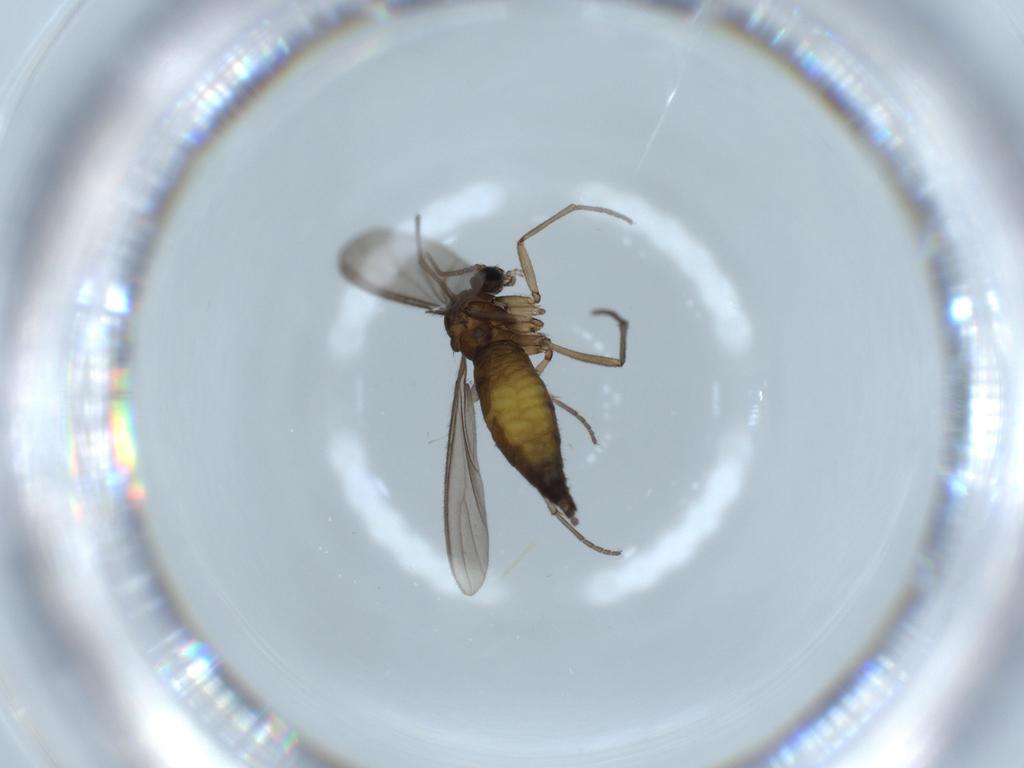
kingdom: Animalia
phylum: Arthropoda
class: Insecta
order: Diptera
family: Sciaridae
